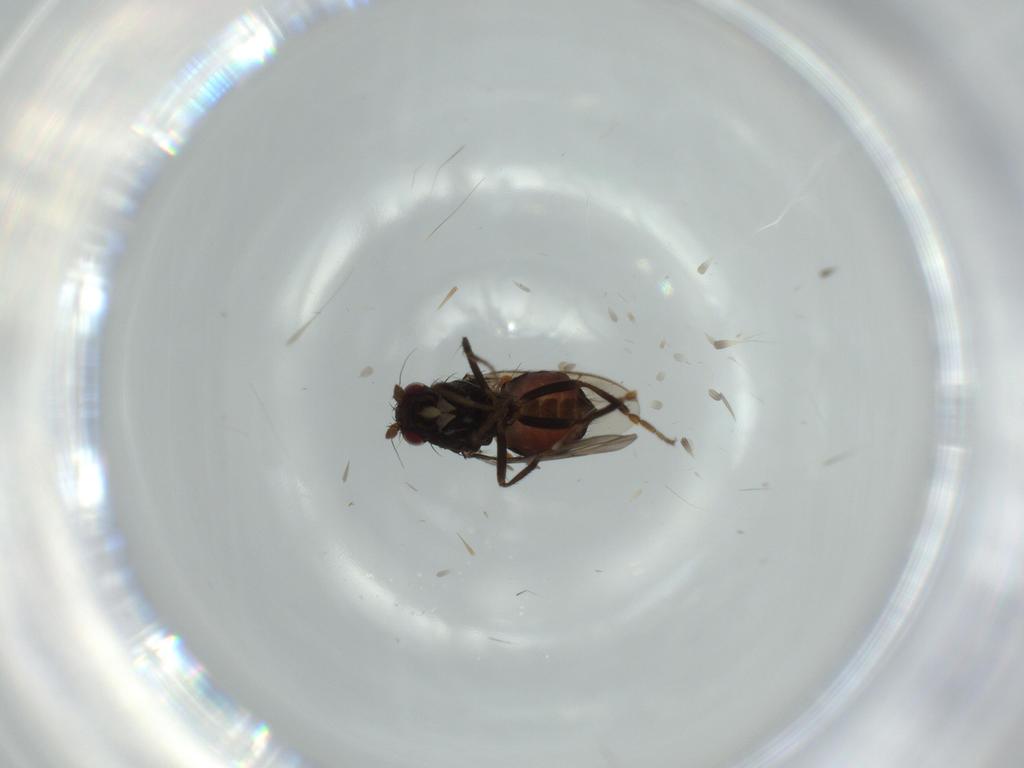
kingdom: Animalia
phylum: Arthropoda
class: Insecta
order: Diptera
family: Sphaeroceridae
